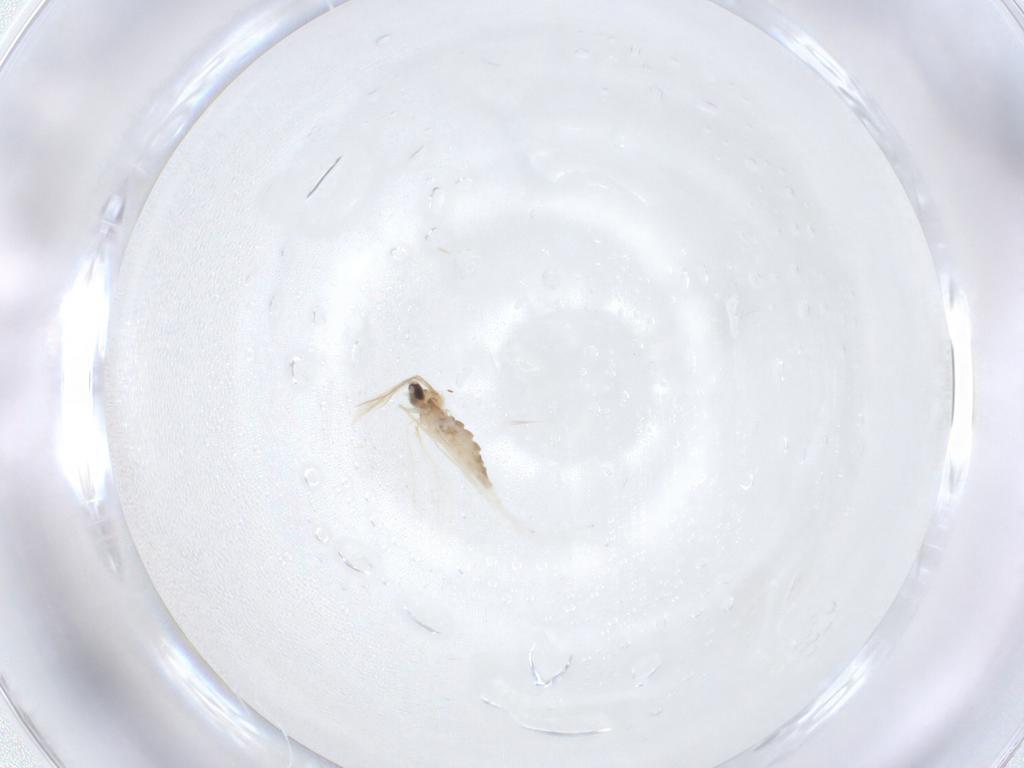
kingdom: Animalia
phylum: Arthropoda
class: Insecta
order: Diptera
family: Cecidomyiidae
